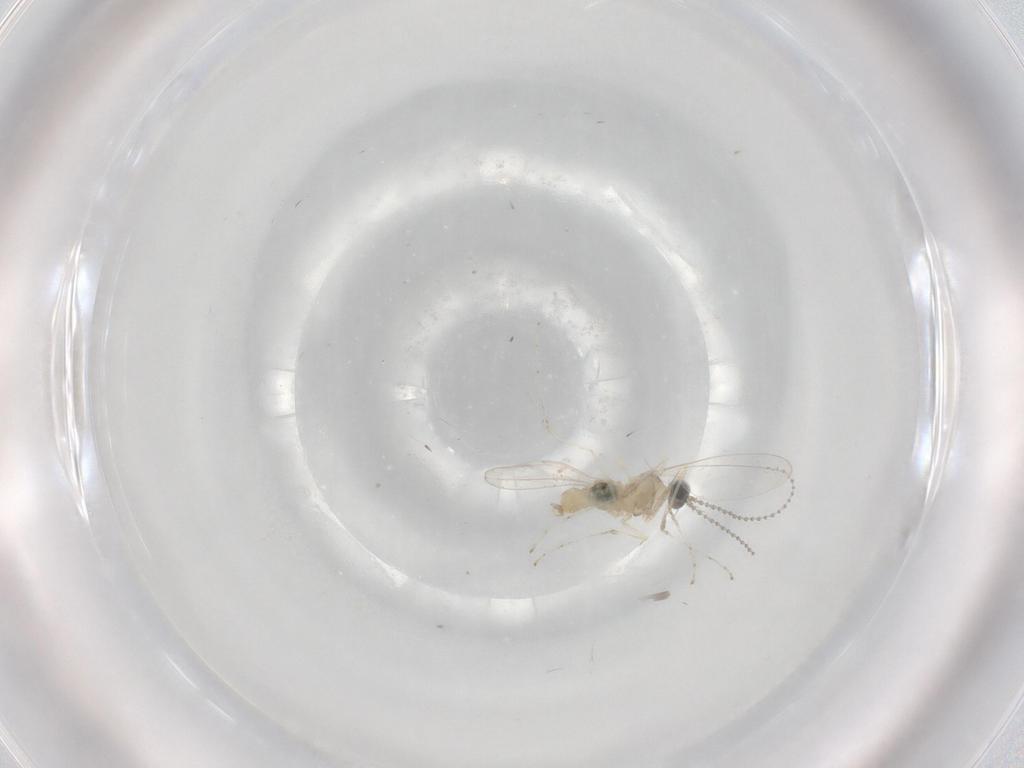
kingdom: Animalia
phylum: Arthropoda
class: Insecta
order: Diptera
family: Cecidomyiidae
